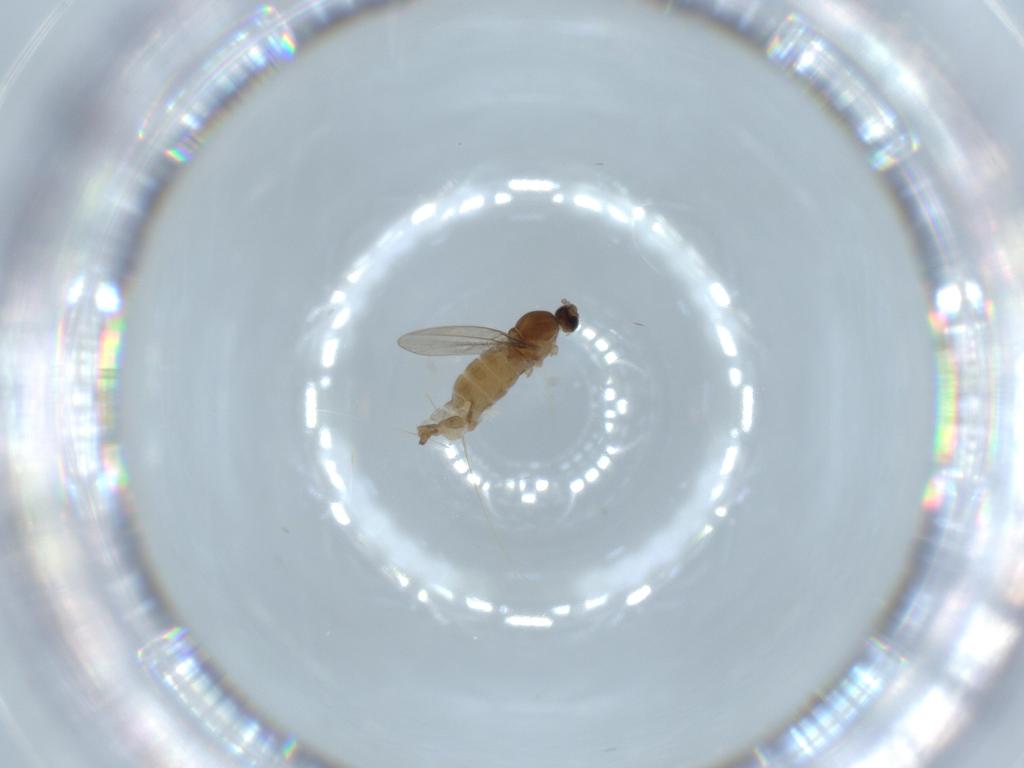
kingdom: Animalia
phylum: Arthropoda
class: Insecta
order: Diptera
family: Cecidomyiidae
